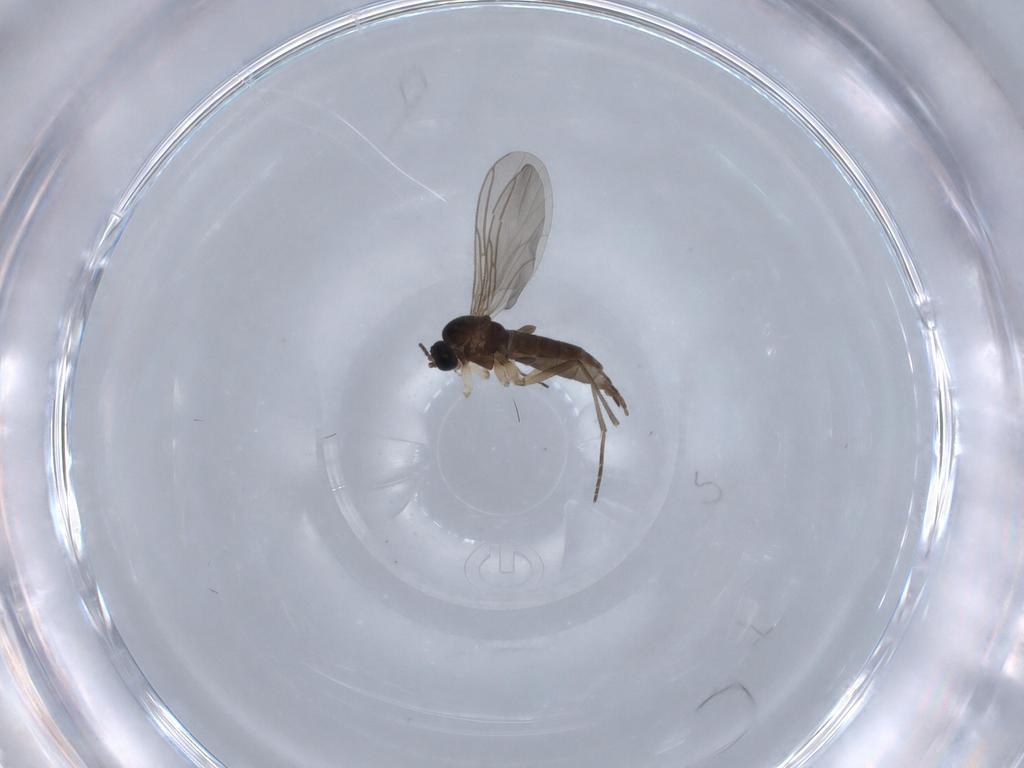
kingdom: Animalia
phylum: Arthropoda
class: Insecta
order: Diptera
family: Sciaridae
